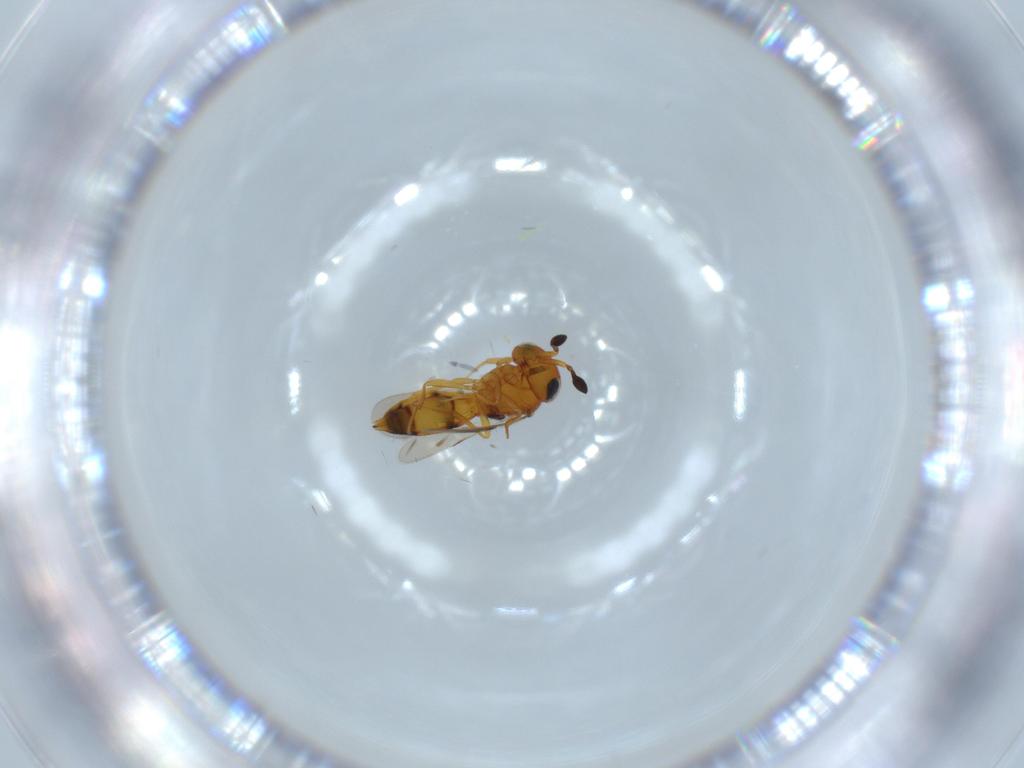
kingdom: Animalia
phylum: Arthropoda
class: Insecta
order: Hymenoptera
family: Scelionidae
